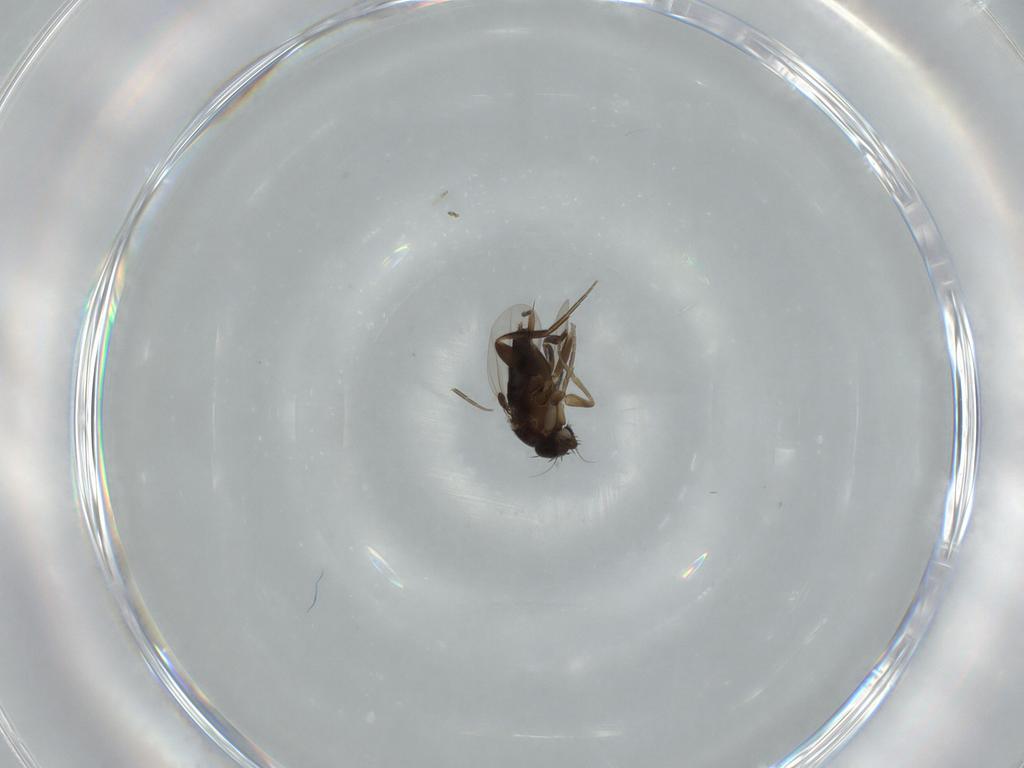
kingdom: Animalia
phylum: Arthropoda
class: Insecta
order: Diptera
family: Phoridae
